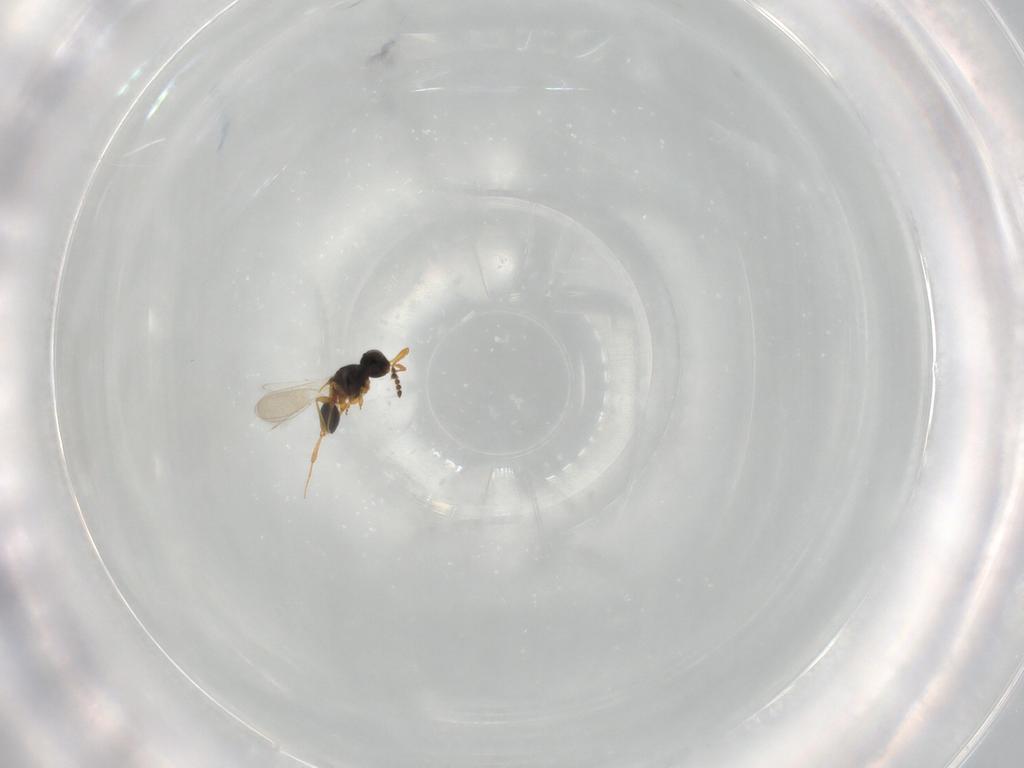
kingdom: Animalia
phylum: Arthropoda
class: Insecta
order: Hymenoptera
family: Platygastridae
